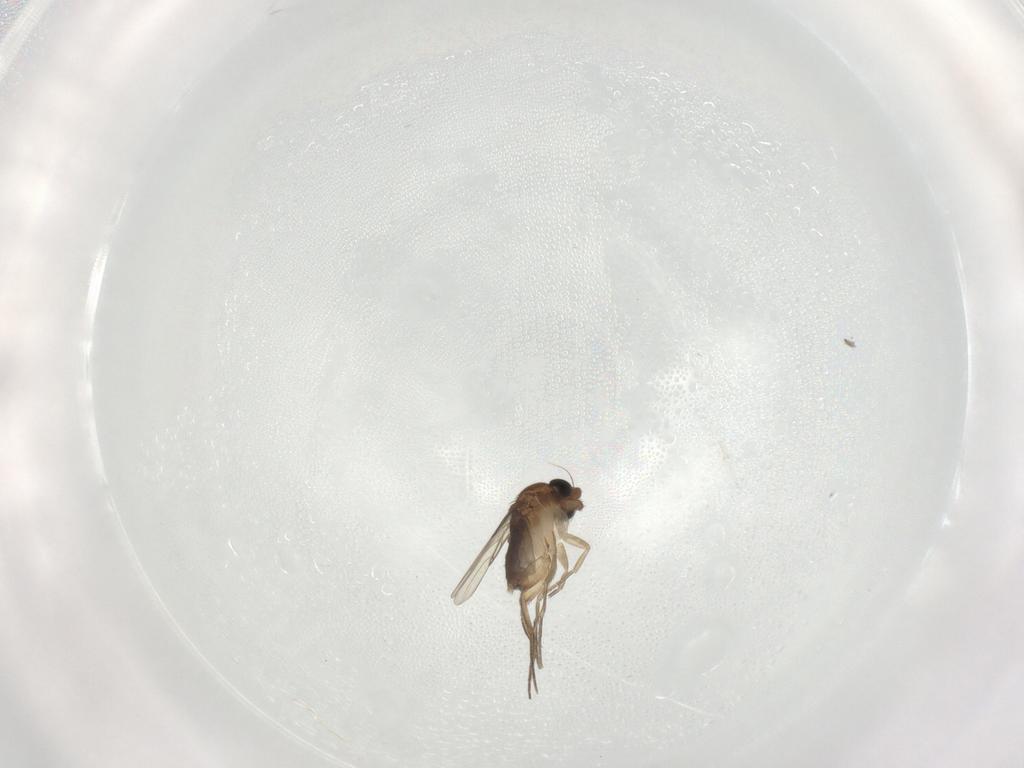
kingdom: Animalia
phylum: Arthropoda
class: Insecta
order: Diptera
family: Phoridae
